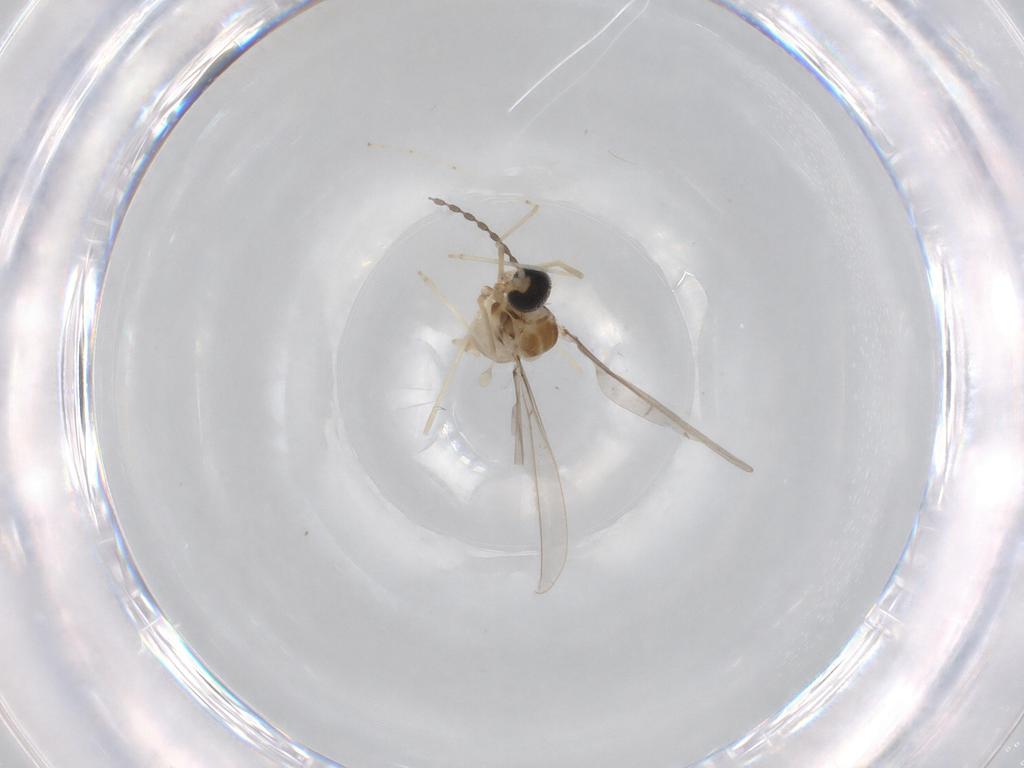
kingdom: Animalia
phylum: Arthropoda
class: Insecta
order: Diptera
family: Cecidomyiidae
